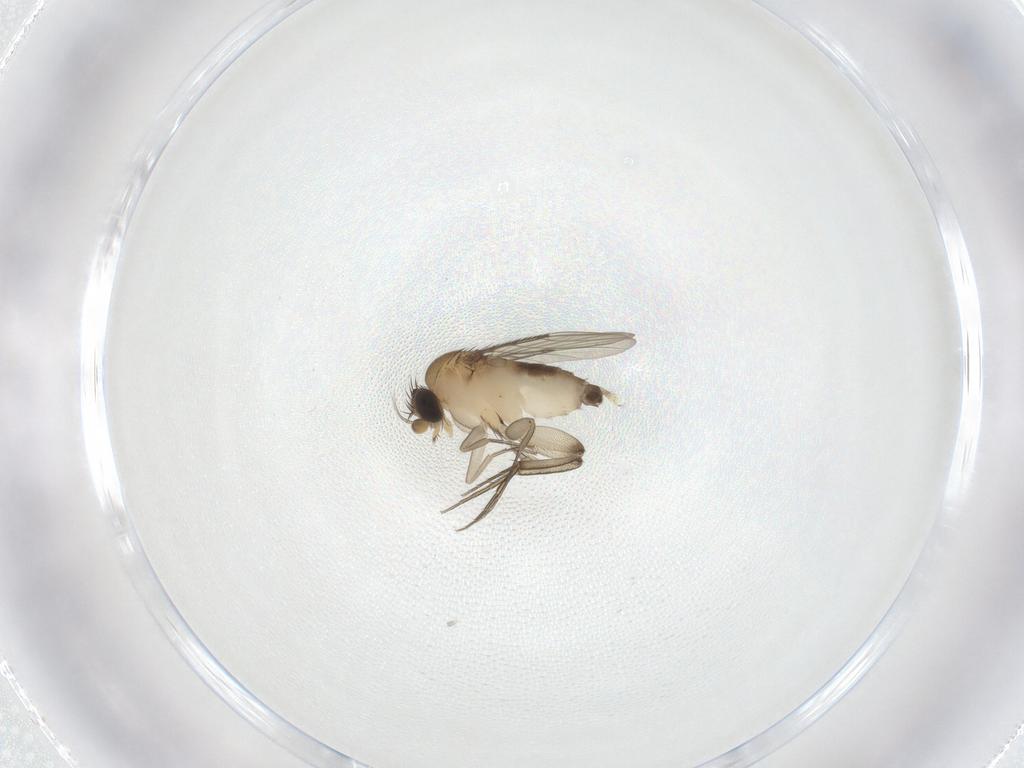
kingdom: Animalia
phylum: Arthropoda
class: Insecta
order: Diptera
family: Phoridae
